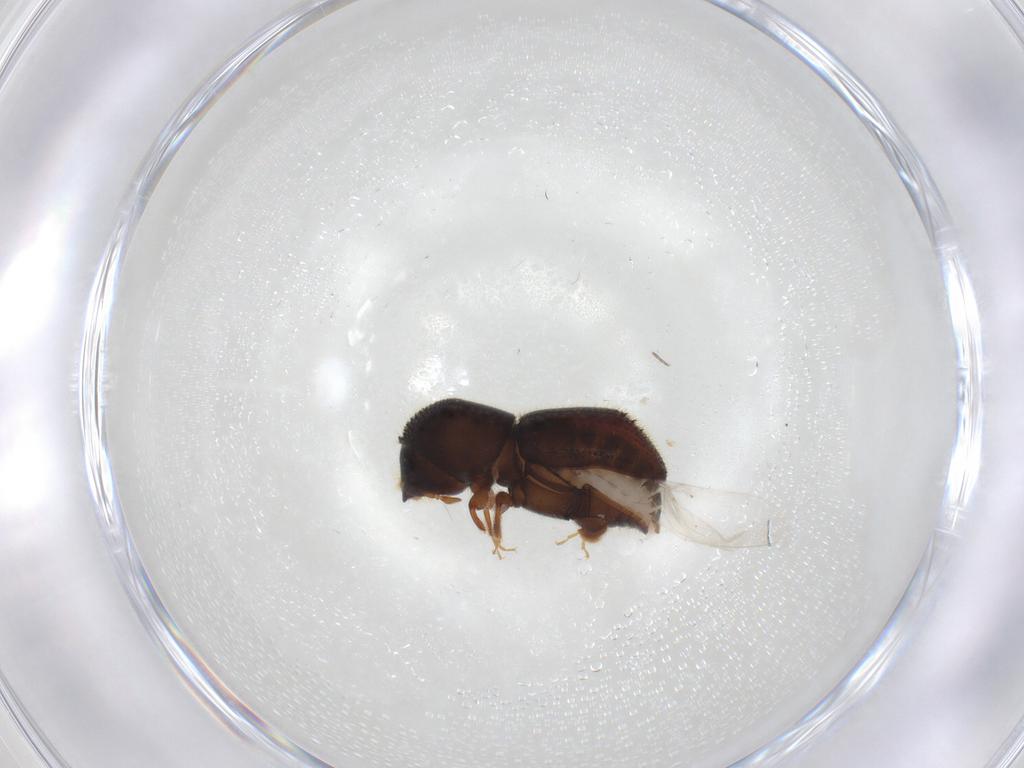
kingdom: Animalia
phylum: Arthropoda
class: Insecta
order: Coleoptera
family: Curculionidae
